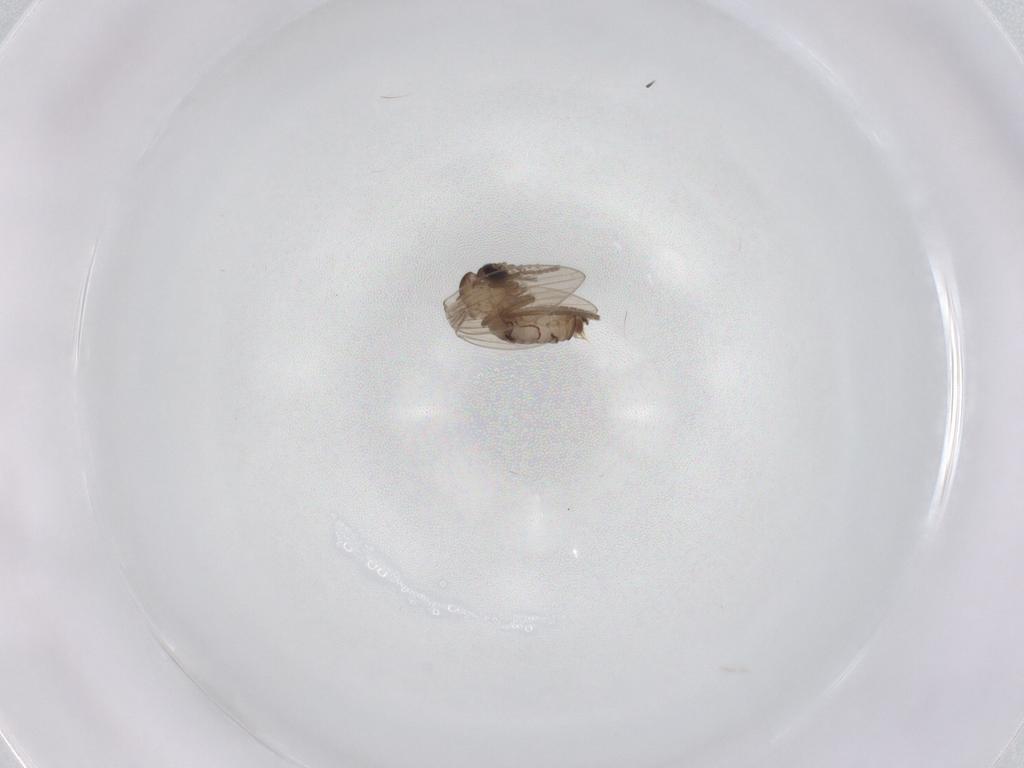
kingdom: Animalia
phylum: Arthropoda
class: Insecta
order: Diptera
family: Psychodidae
